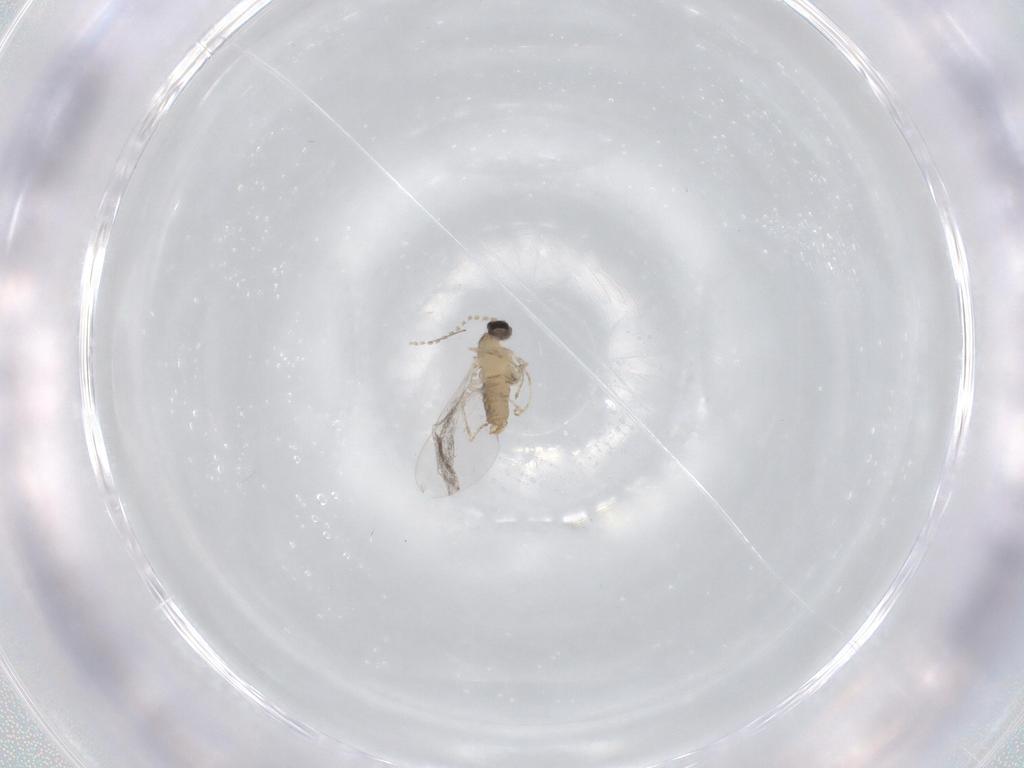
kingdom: Animalia
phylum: Arthropoda
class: Insecta
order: Diptera
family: Cecidomyiidae
